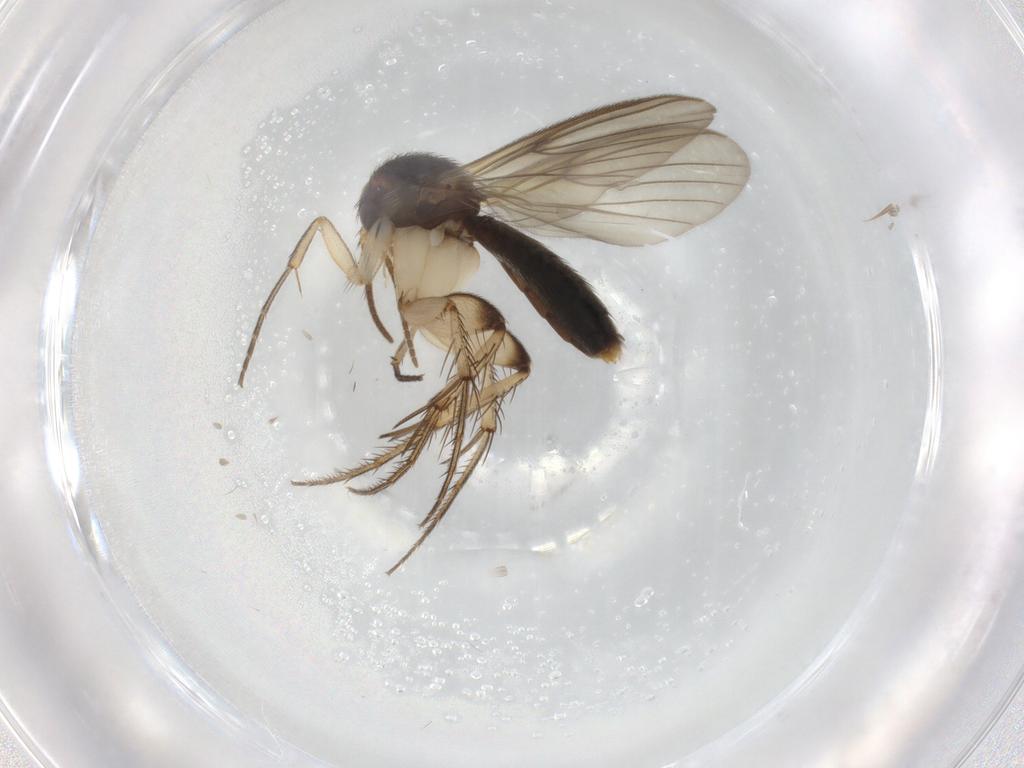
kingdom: Animalia
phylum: Arthropoda
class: Insecta
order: Diptera
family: Mycetophilidae
